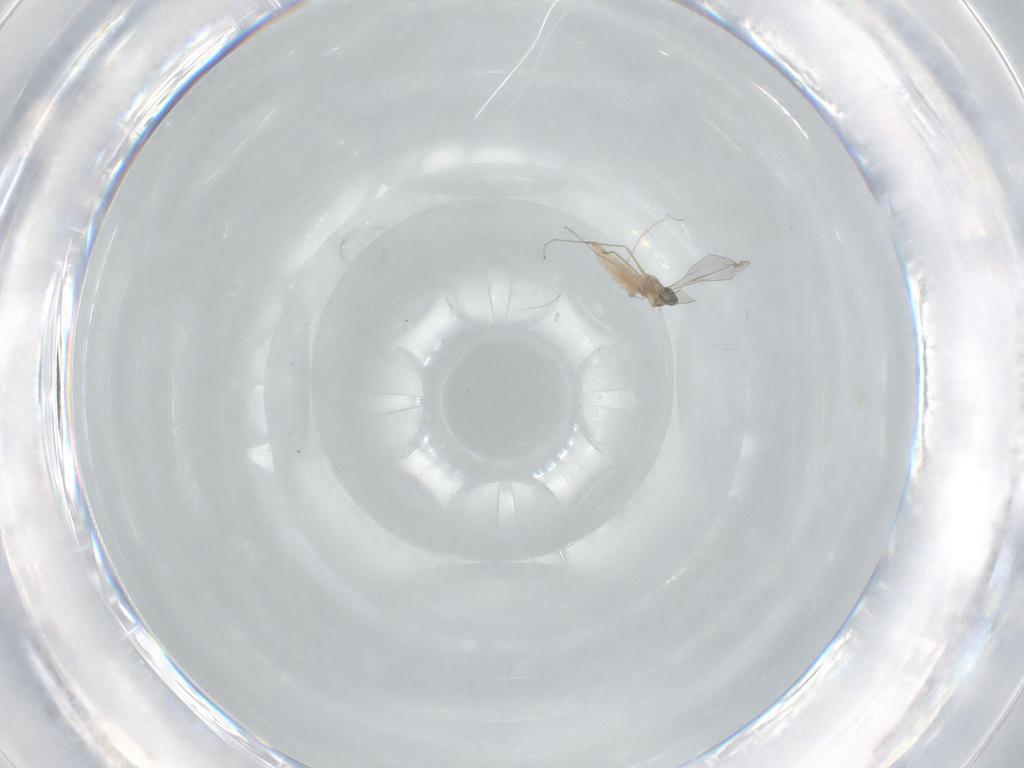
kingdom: Animalia
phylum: Arthropoda
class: Insecta
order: Diptera
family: Cecidomyiidae
